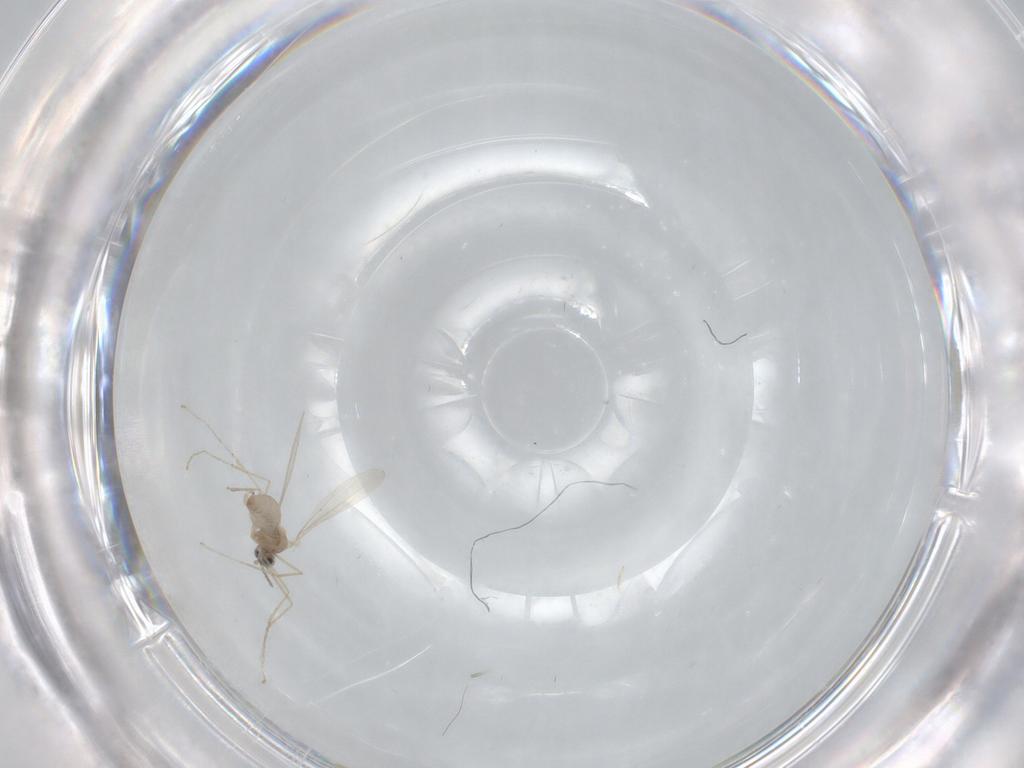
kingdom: Animalia
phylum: Arthropoda
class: Insecta
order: Diptera
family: Cecidomyiidae
